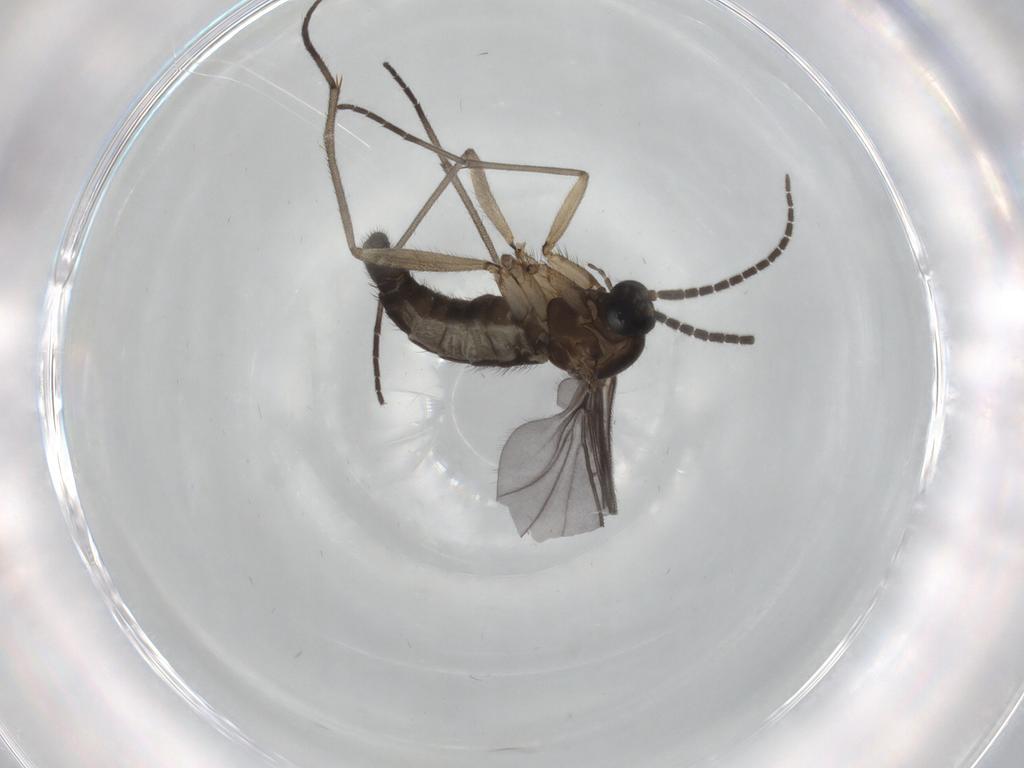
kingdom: Animalia
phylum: Arthropoda
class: Insecta
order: Diptera
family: Sciaridae
